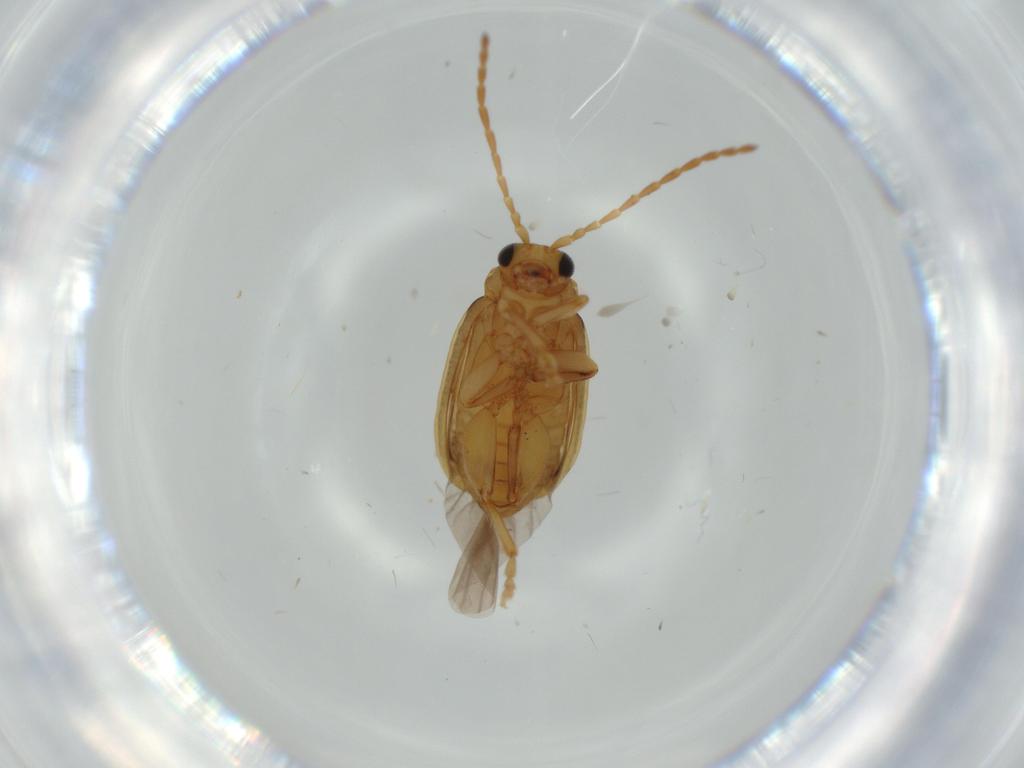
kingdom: Animalia
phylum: Arthropoda
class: Insecta
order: Coleoptera
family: Chrysomelidae
